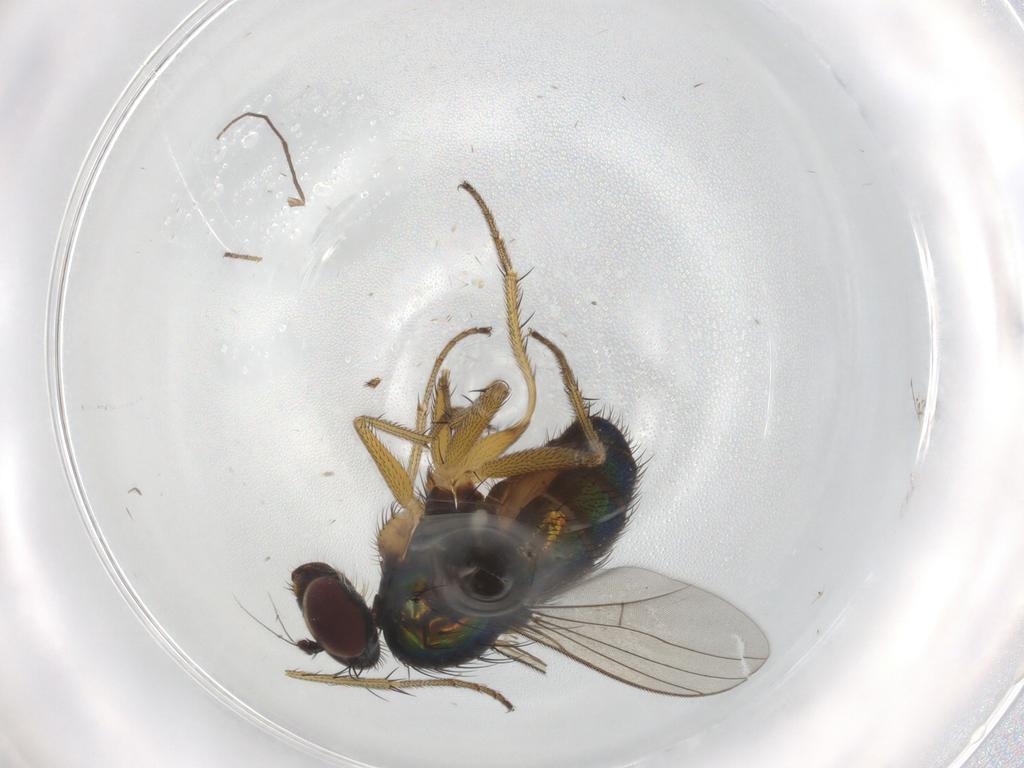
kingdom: Animalia
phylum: Arthropoda
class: Insecta
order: Diptera
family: Dolichopodidae
